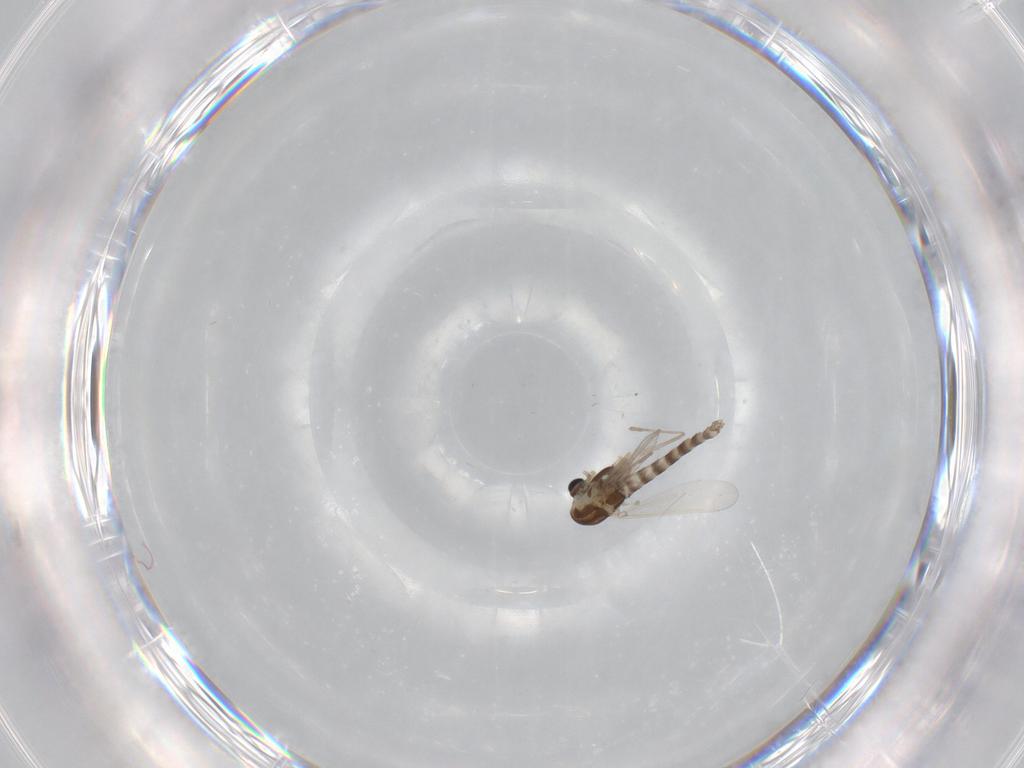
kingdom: Animalia
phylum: Arthropoda
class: Insecta
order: Diptera
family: Chironomidae
